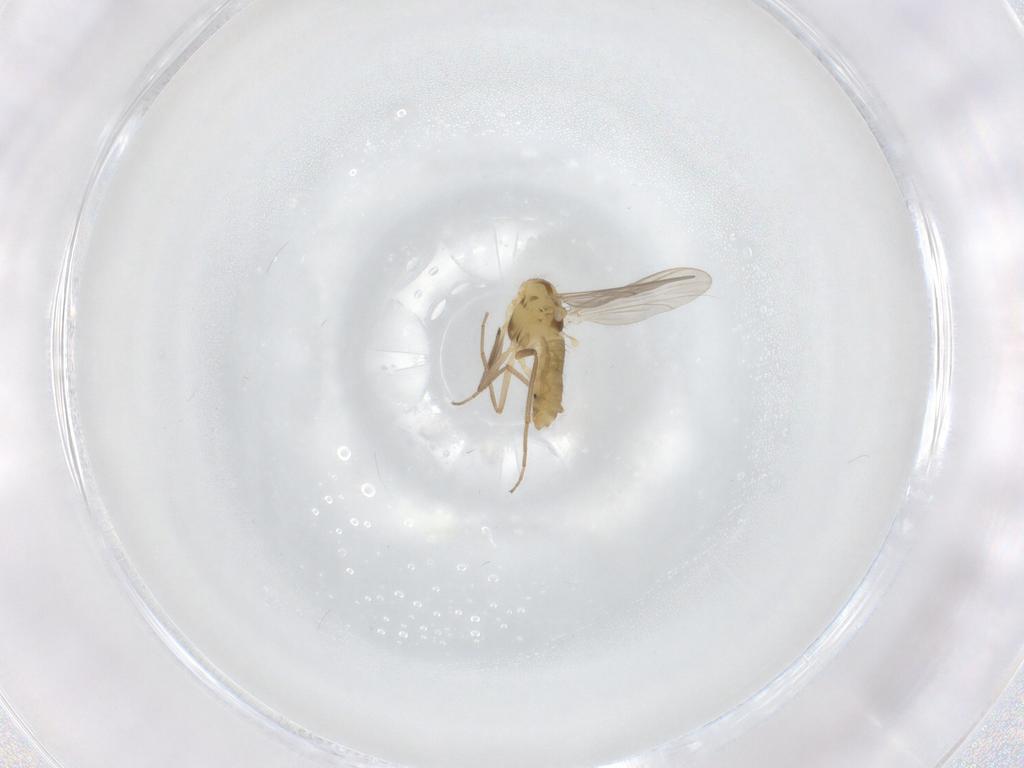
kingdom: Animalia
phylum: Arthropoda
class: Insecta
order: Diptera
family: Chironomidae
